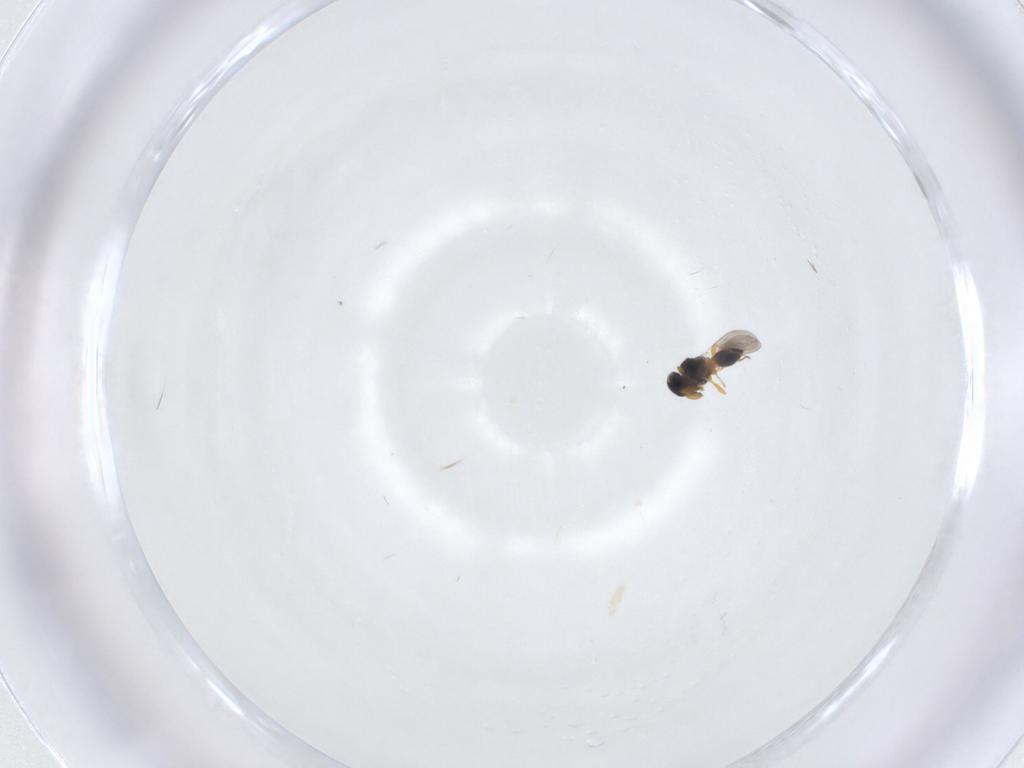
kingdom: Animalia
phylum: Arthropoda
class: Insecta
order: Hymenoptera
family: Platygastridae
